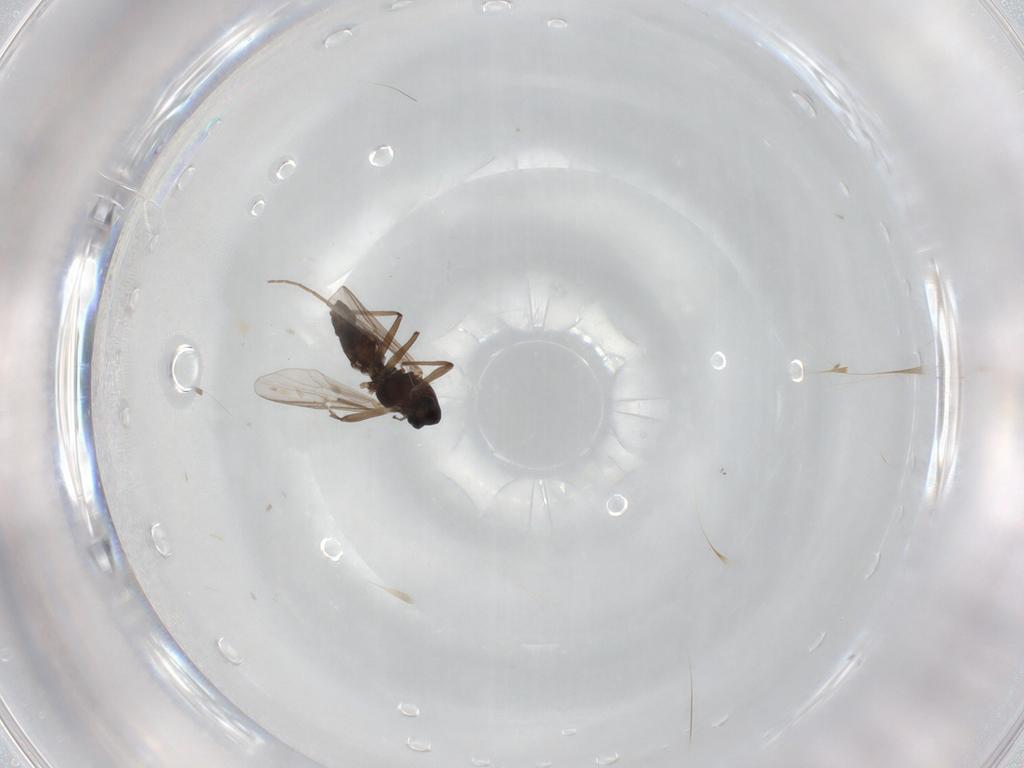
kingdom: Animalia
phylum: Arthropoda
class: Insecta
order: Diptera
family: Chironomidae
